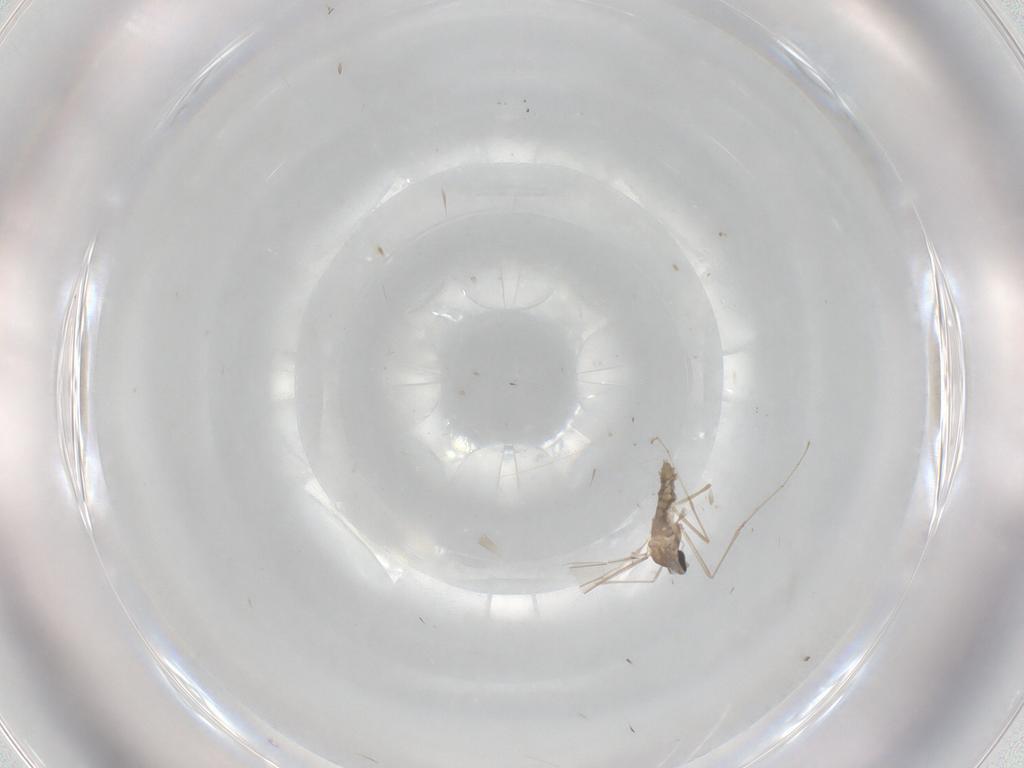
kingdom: Animalia
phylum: Arthropoda
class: Insecta
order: Diptera
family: Cecidomyiidae
